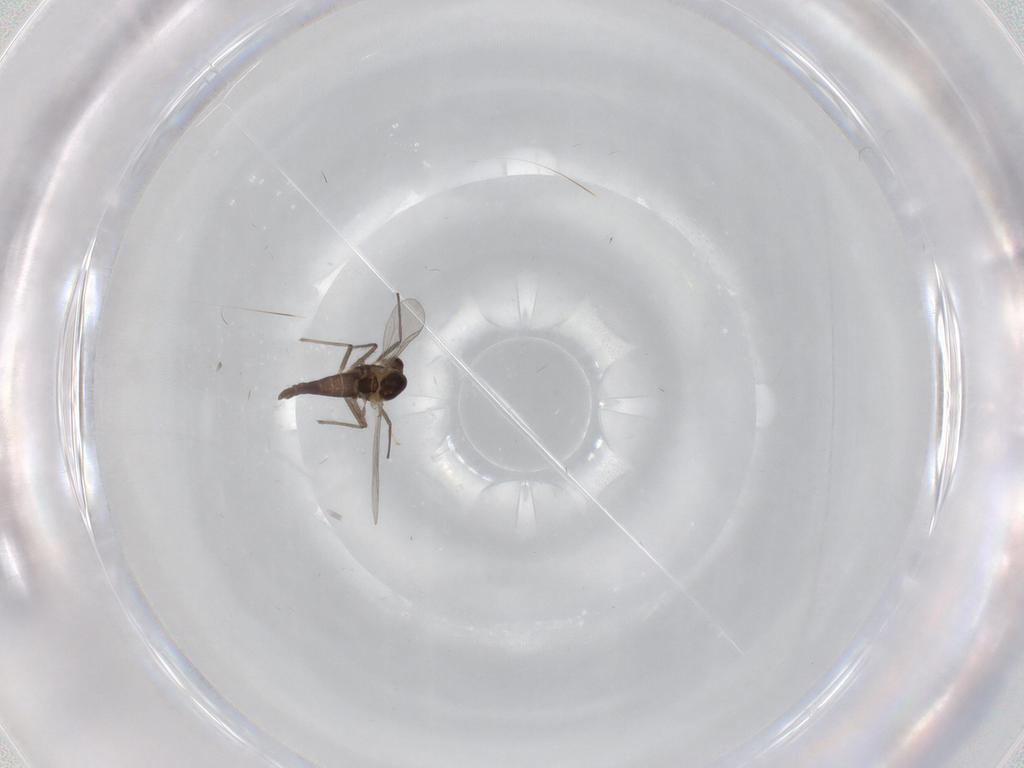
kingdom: Animalia
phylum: Arthropoda
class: Insecta
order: Diptera
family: Chironomidae
